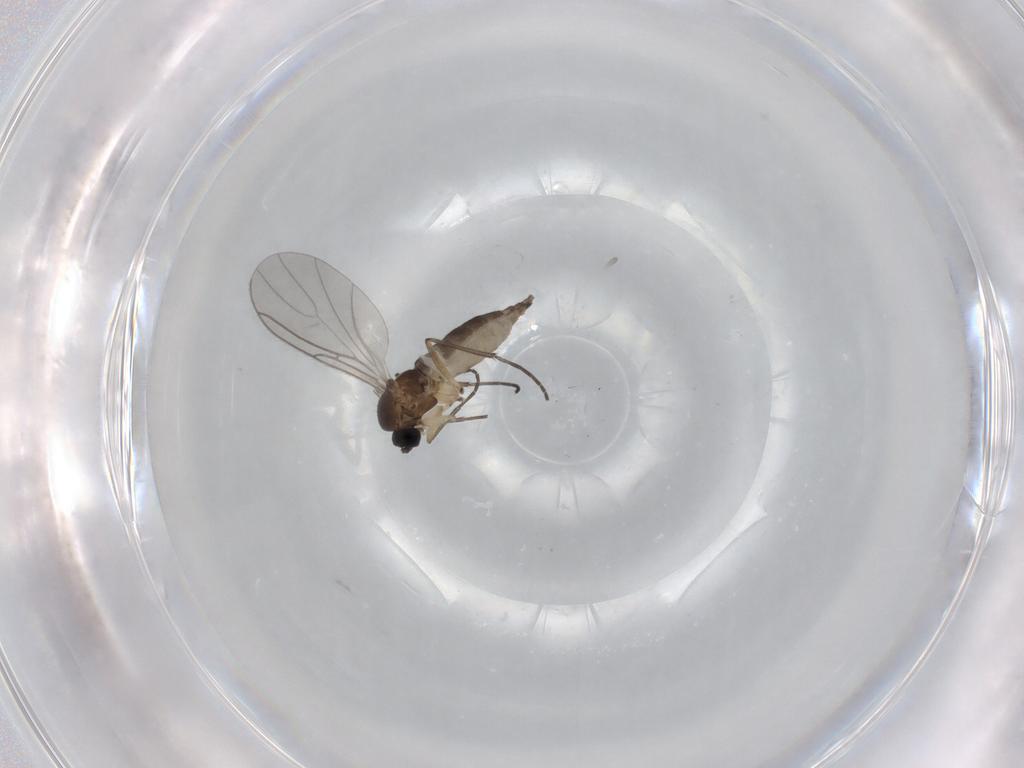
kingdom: Animalia
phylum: Arthropoda
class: Insecta
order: Diptera
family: Sciaridae
